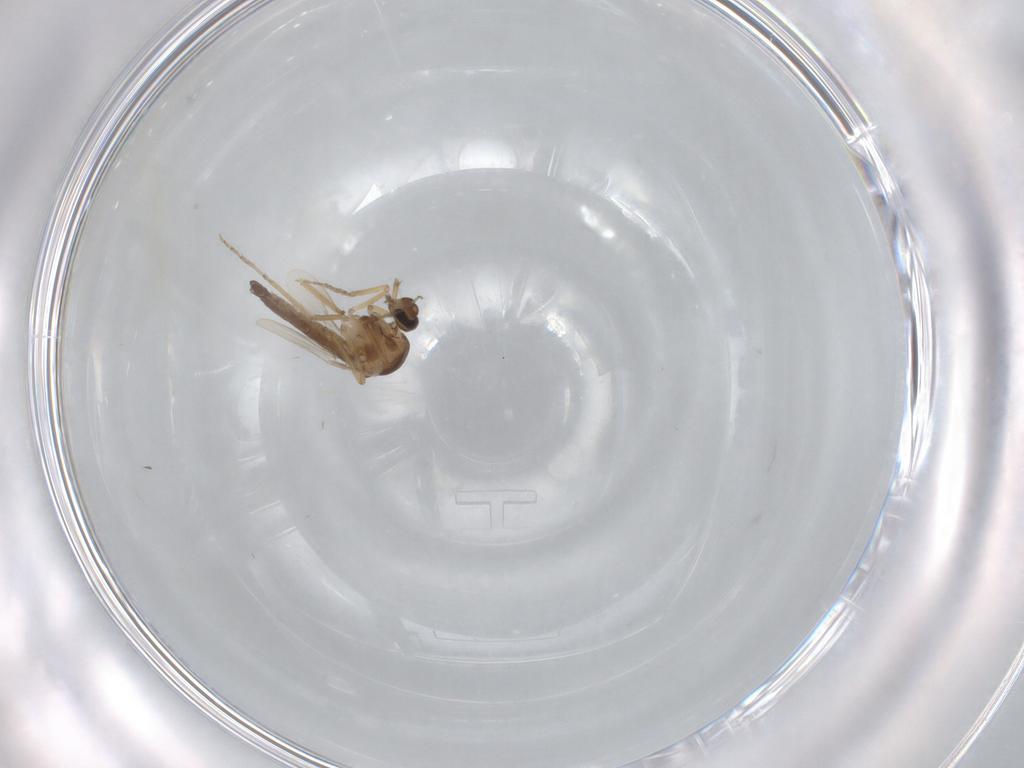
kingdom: Animalia
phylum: Arthropoda
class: Insecta
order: Diptera
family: Ceratopogonidae
